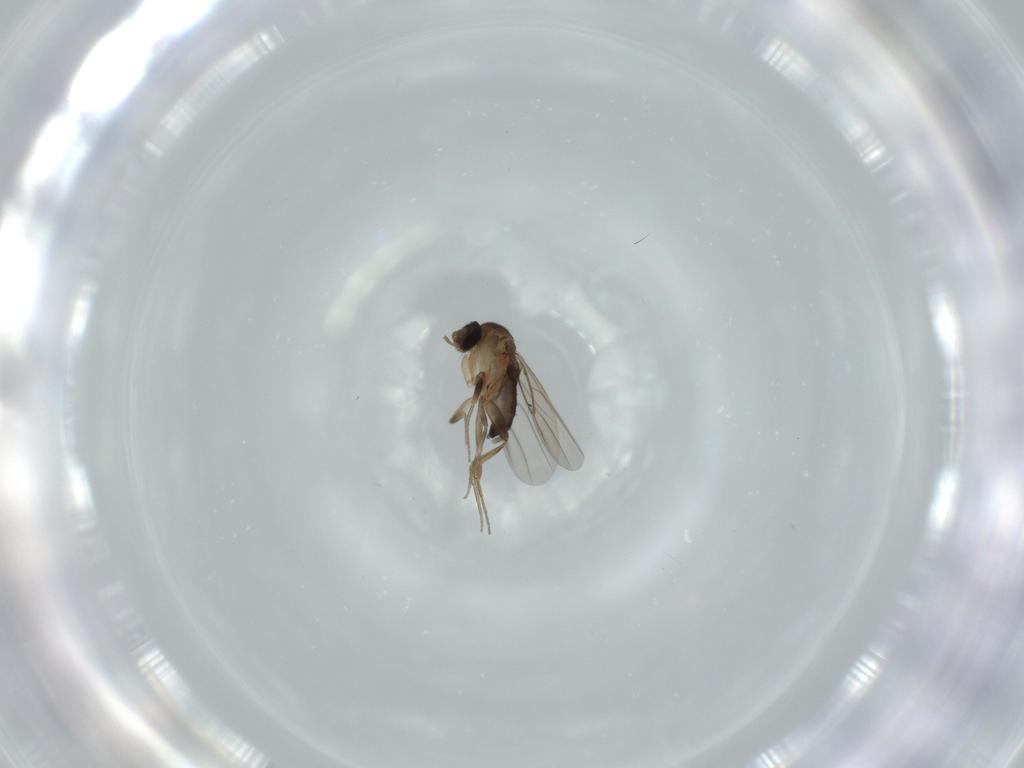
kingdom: Animalia
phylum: Arthropoda
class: Insecta
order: Diptera
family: Phoridae
